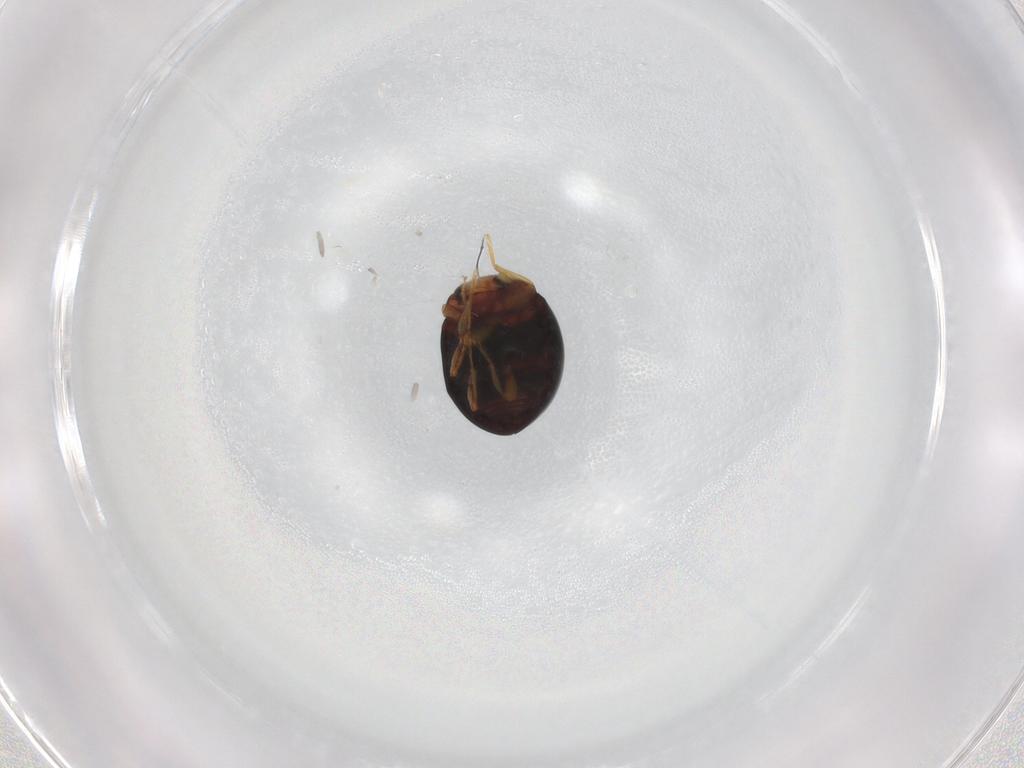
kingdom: Animalia
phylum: Arthropoda
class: Insecta
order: Coleoptera
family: Coccinellidae
